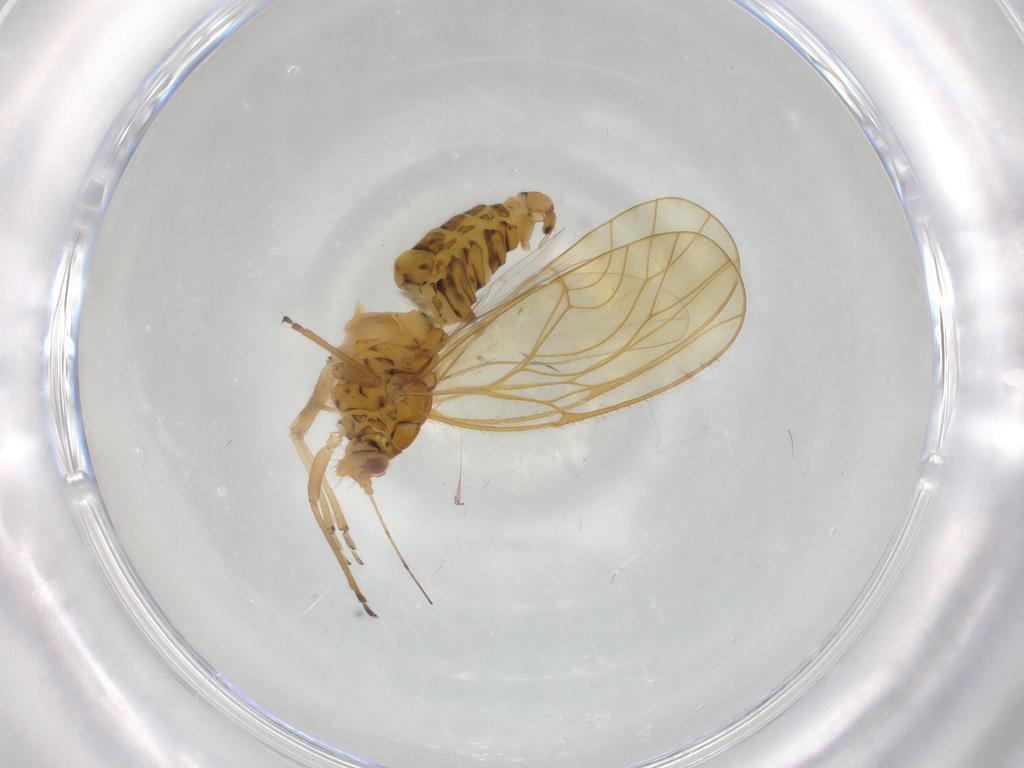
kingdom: Animalia
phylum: Arthropoda
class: Insecta
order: Hemiptera
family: Psyllidae
